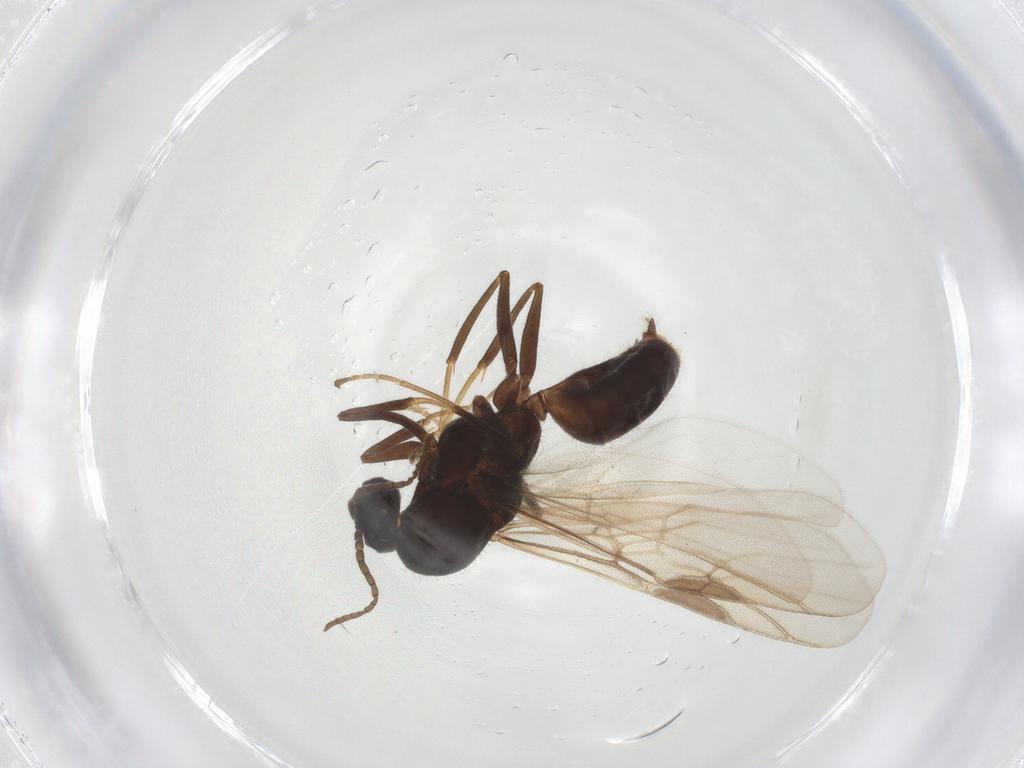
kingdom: Animalia
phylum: Arthropoda
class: Insecta
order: Hymenoptera
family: Formicidae
